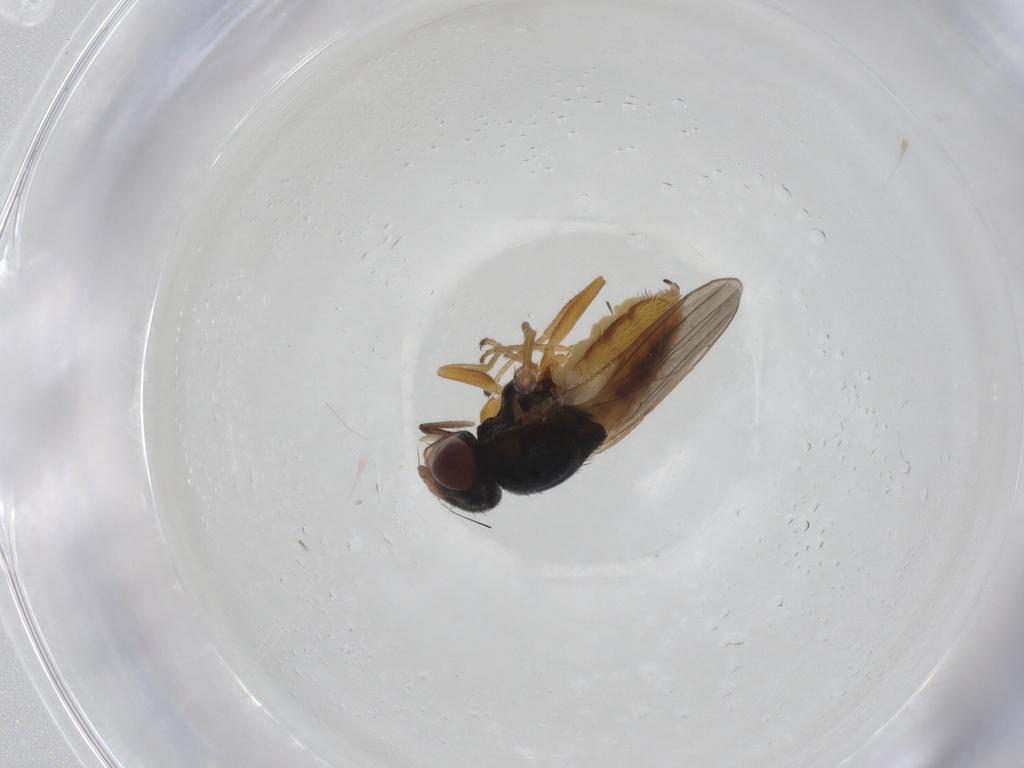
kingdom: Animalia
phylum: Arthropoda
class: Insecta
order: Diptera
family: Chloropidae
